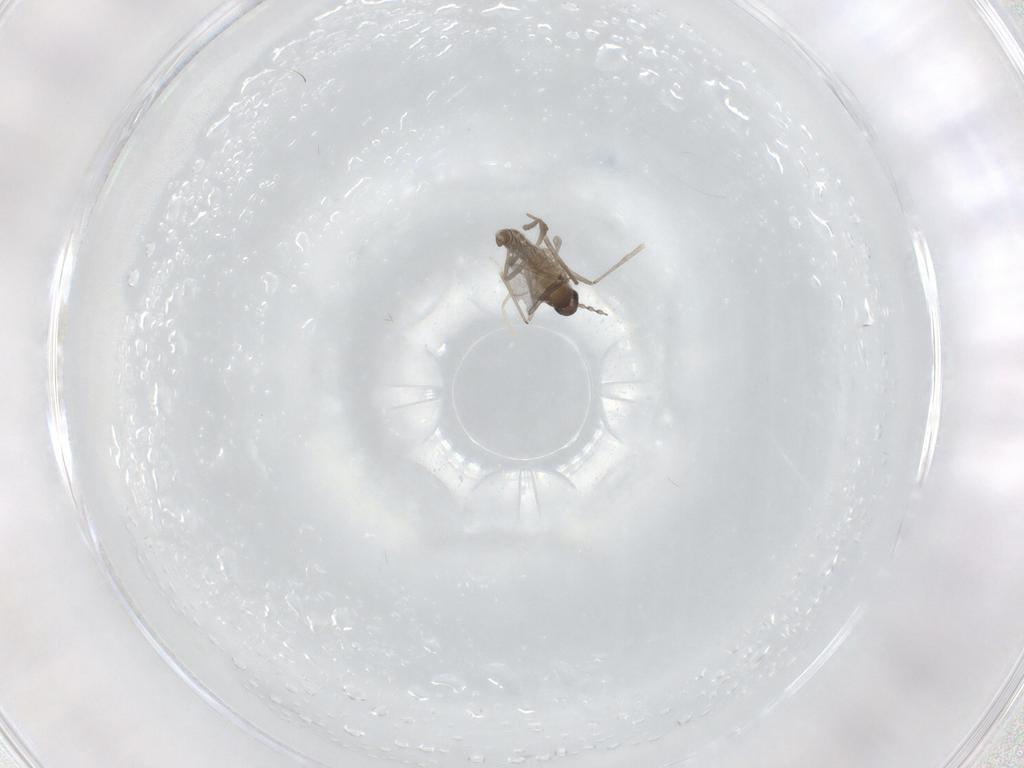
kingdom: Animalia
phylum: Arthropoda
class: Insecta
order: Diptera
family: Cecidomyiidae
